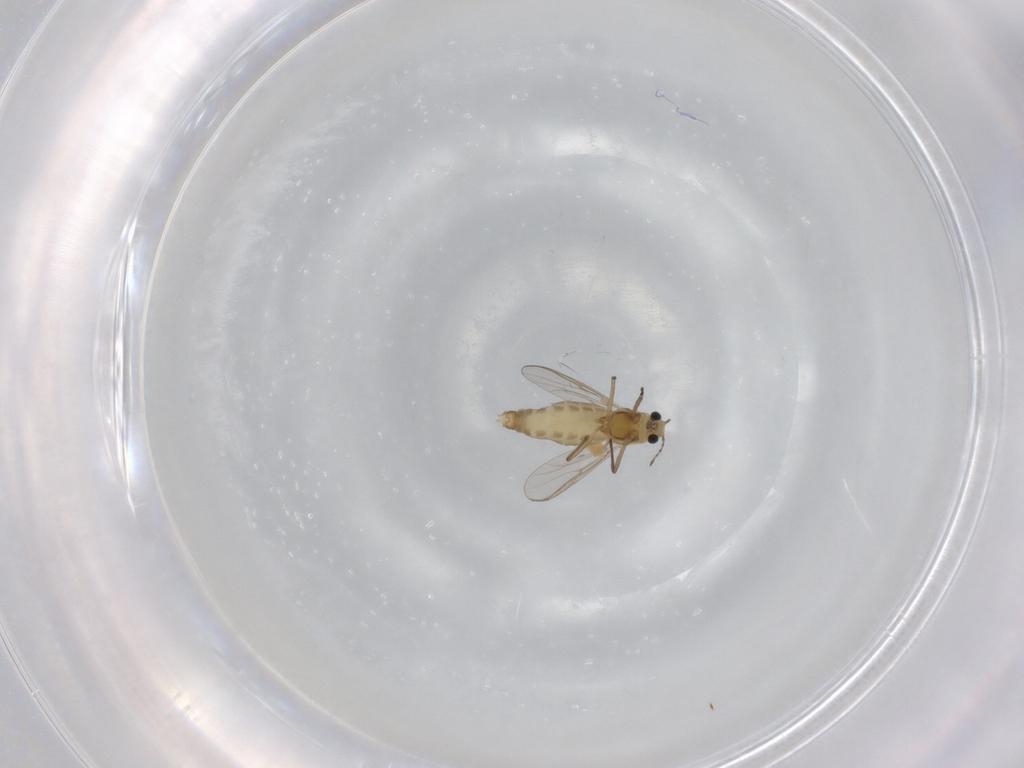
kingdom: Animalia
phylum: Arthropoda
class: Insecta
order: Diptera
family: Chironomidae
